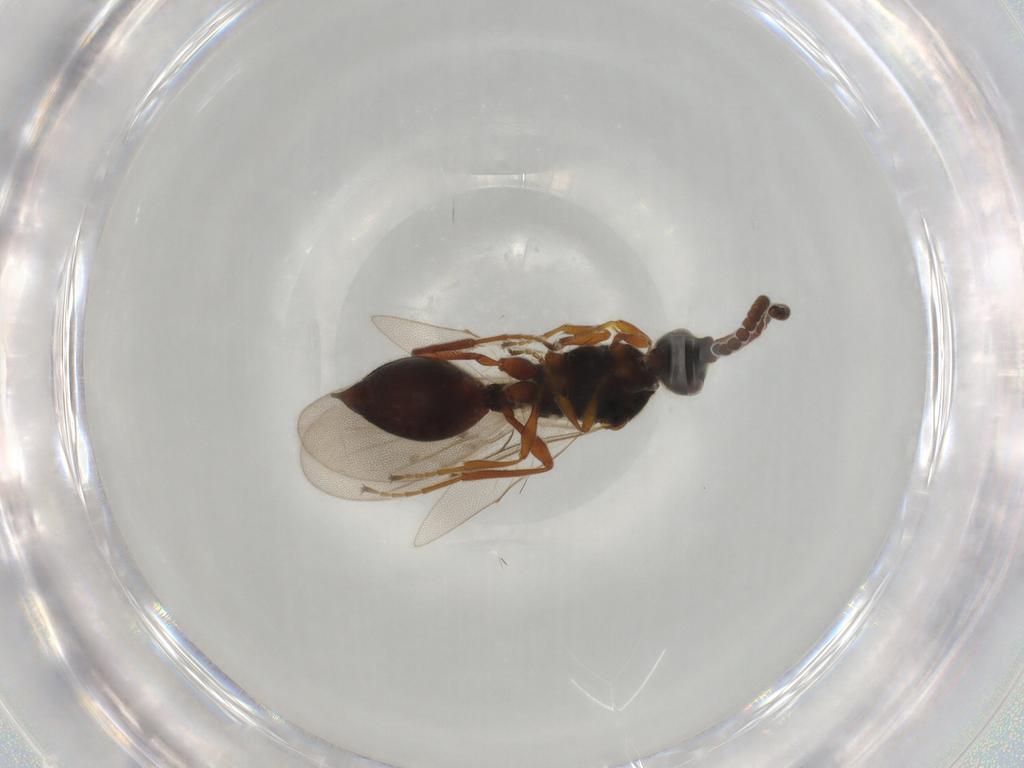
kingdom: Animalia
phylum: Arthropoda
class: Insecta
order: Hymenoptera
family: Diapriidae
